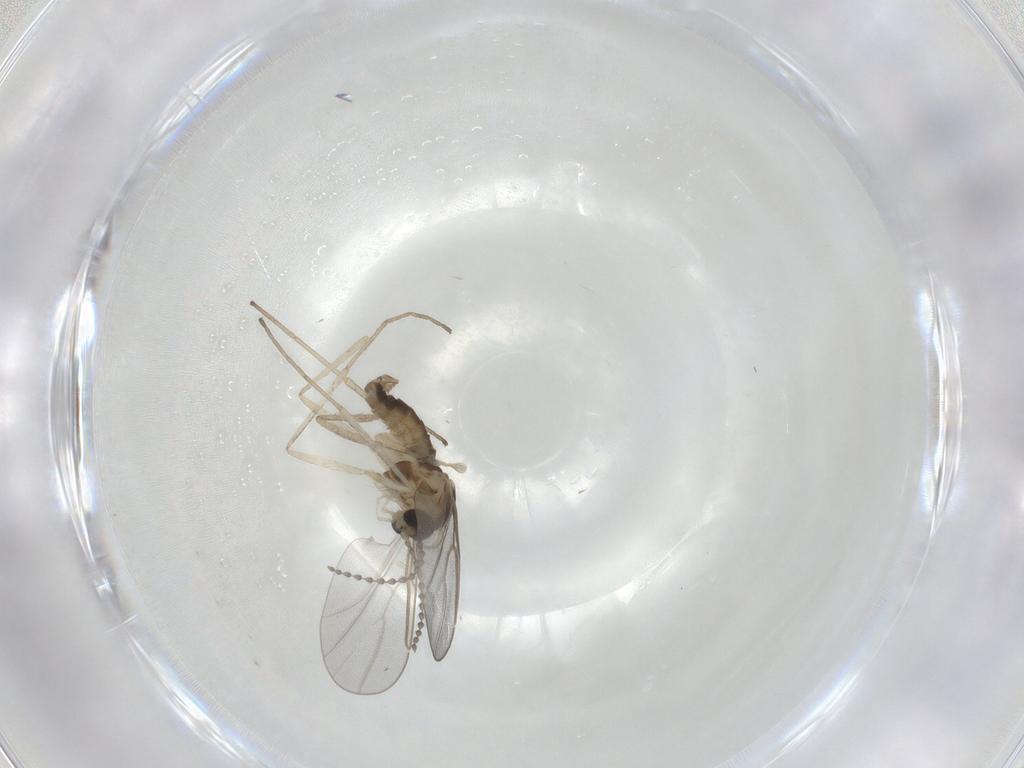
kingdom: Animalia
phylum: Arthropoda
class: Insecta
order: Diptera
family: Cecidomyiidae
